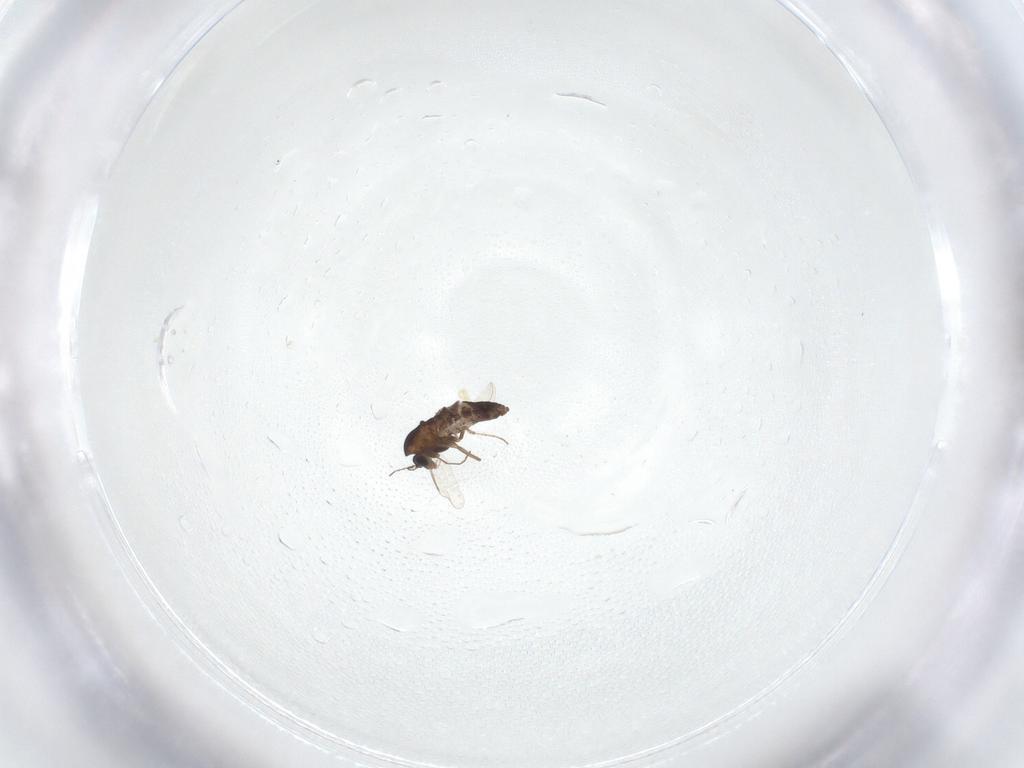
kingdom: Animalia
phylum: Arthropoda
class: Insecta
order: Diptera
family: Chironomidae
